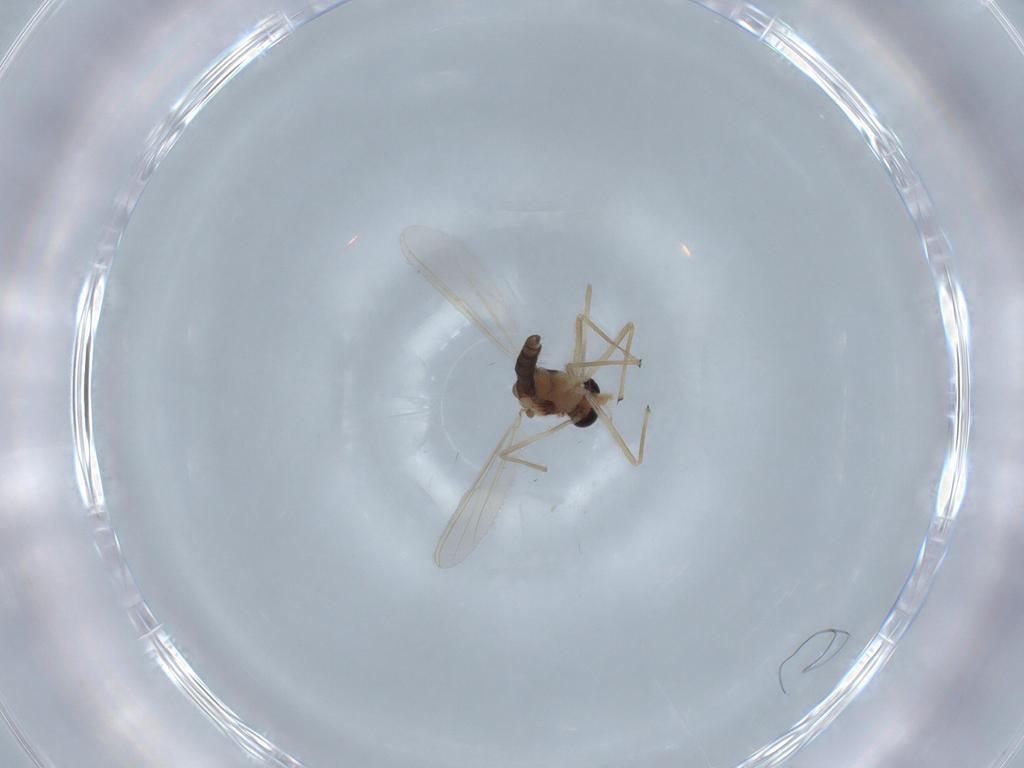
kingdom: Animalia
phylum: Arthropoda
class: Insecta
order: Diptera
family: Chironomidae
